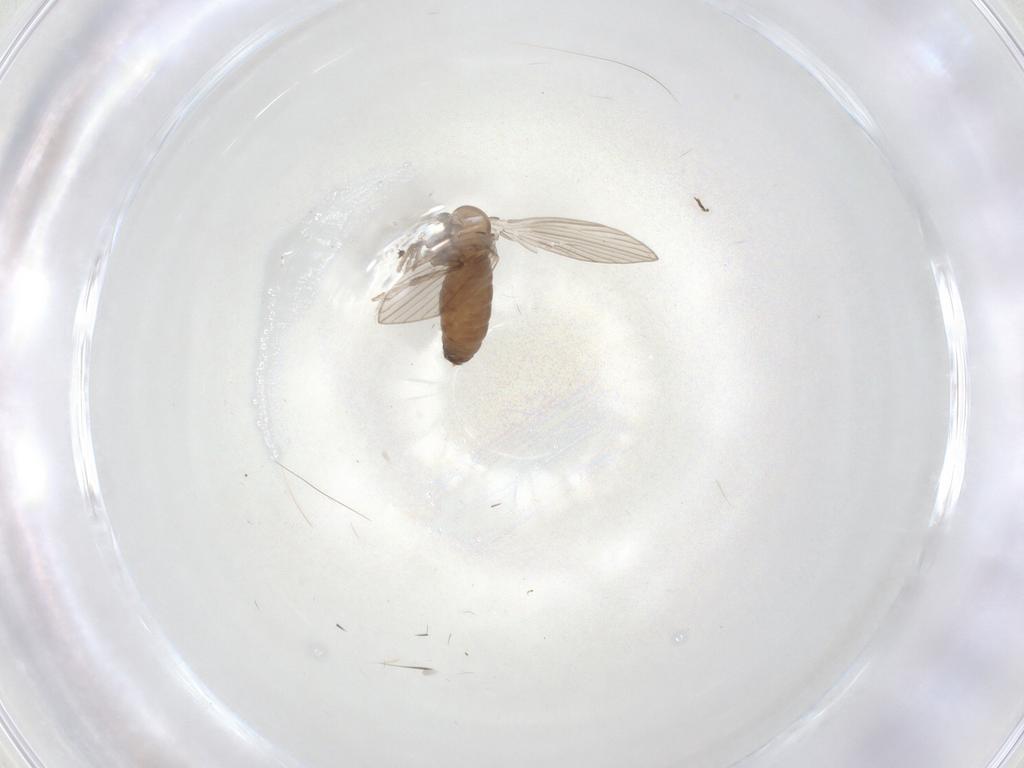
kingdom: Animalia
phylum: Arthropoda
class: Insecta
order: Diptera
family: Psychodidae
